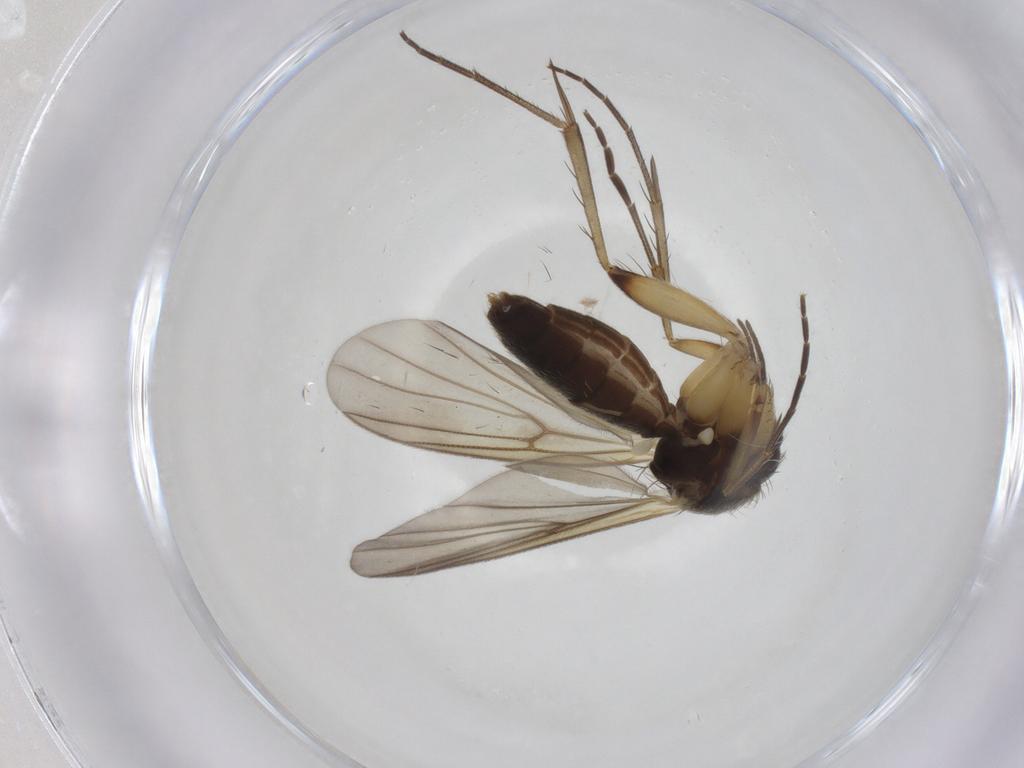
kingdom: Animalia
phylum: Arthropoda
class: Insecta
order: Diptera
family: Mycetophilidae
